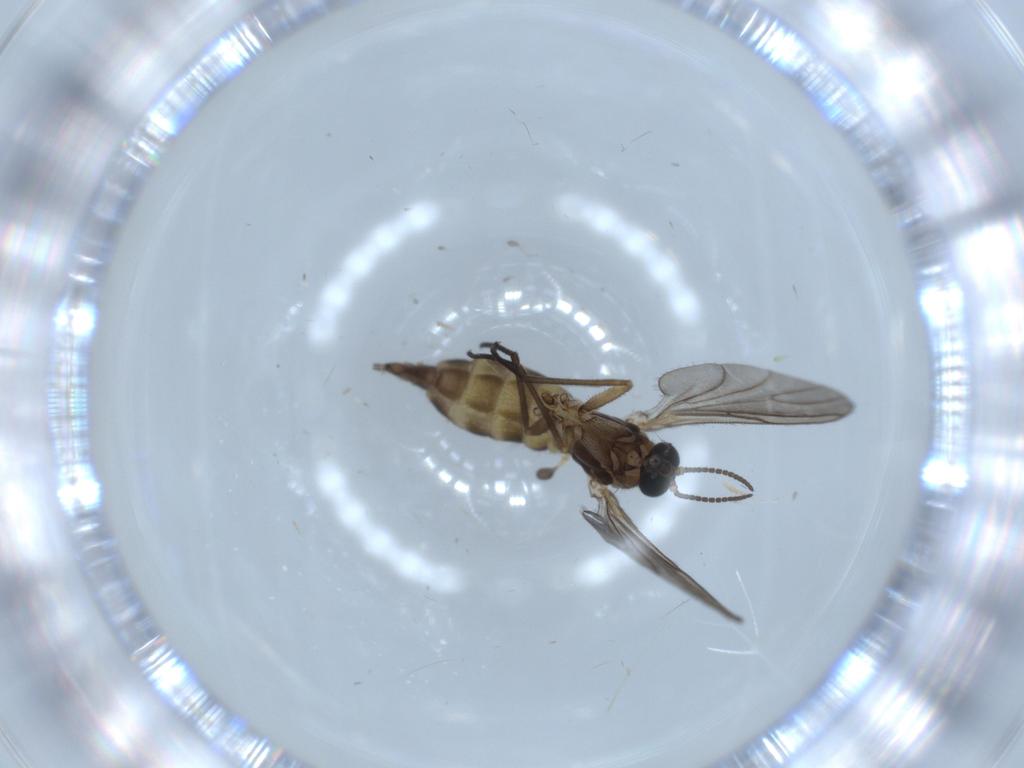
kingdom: Animalia
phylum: Arthropoda
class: Insecta
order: Diptera
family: Sciaridae
